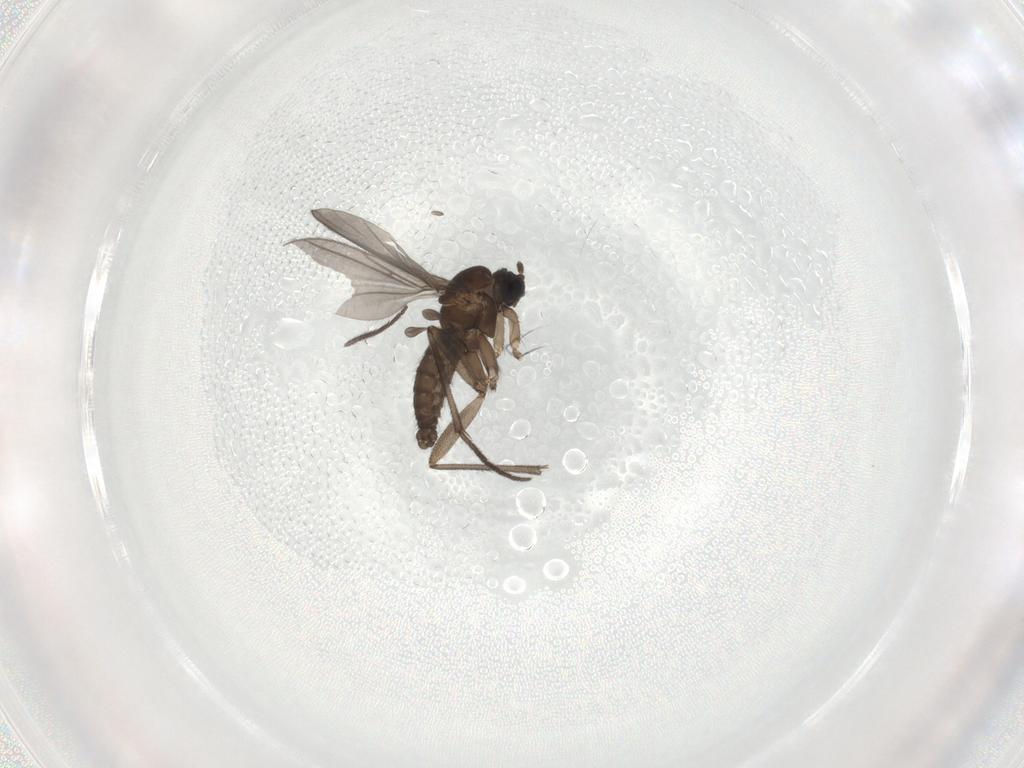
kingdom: Animalia
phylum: Arthropoda
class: Insecta
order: Diptera
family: Sciaridae
